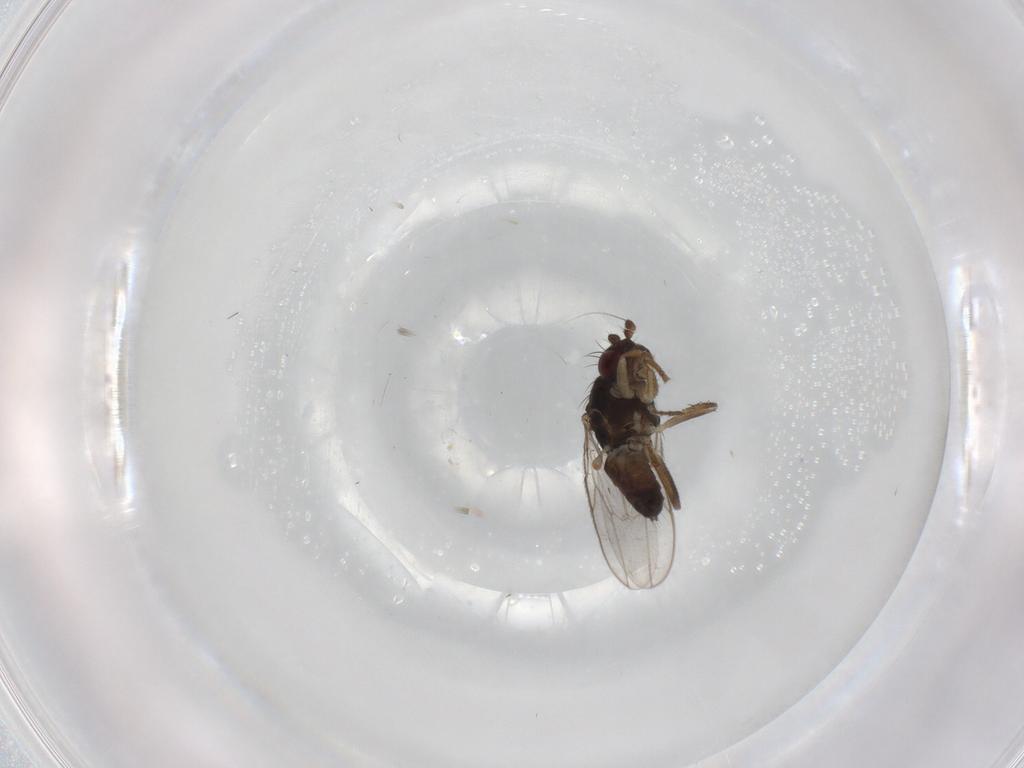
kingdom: Animalia
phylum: Arthropoda
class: Insecta
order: Diptera
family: Sphaeroceridae
